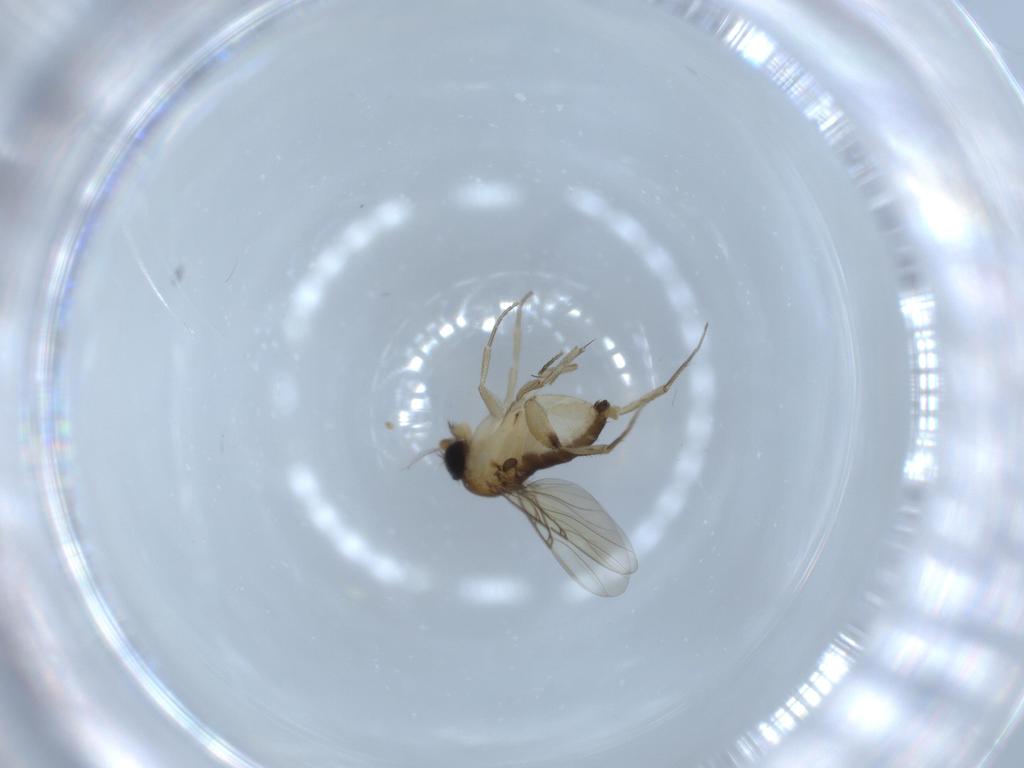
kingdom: Animalia
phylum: Arthropoda
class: Insecta
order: Diptera
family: Phoridae
